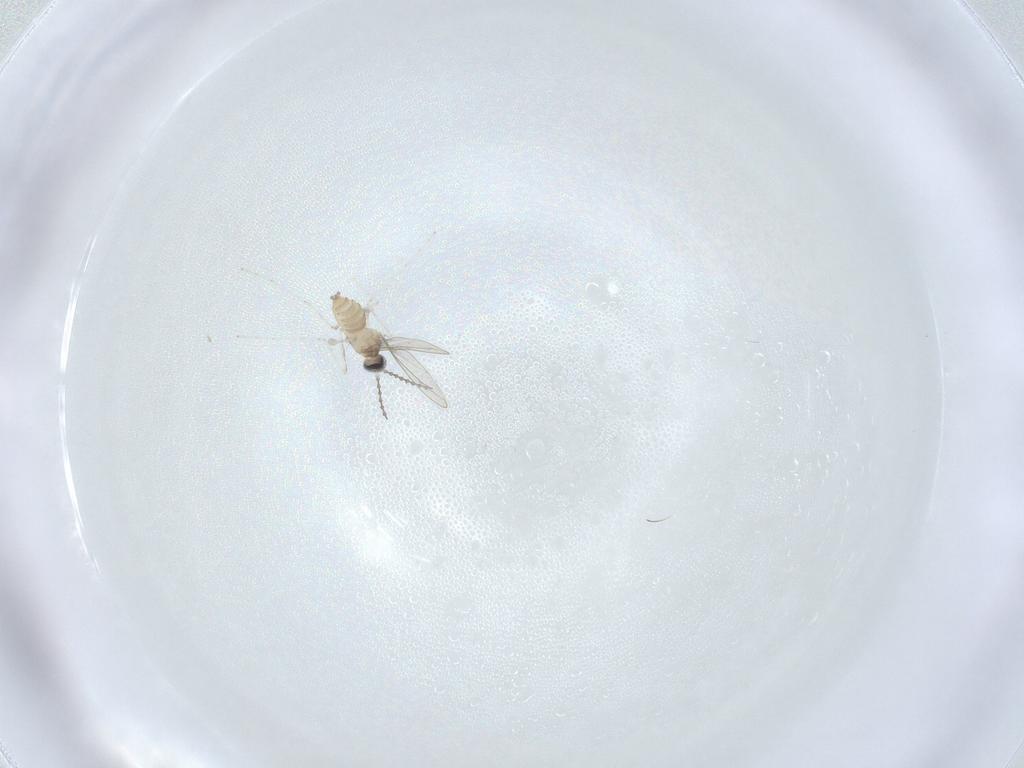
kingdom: Animalia
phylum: Arthropoda
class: Insecta
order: Diptera
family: Cecidomyiidae
